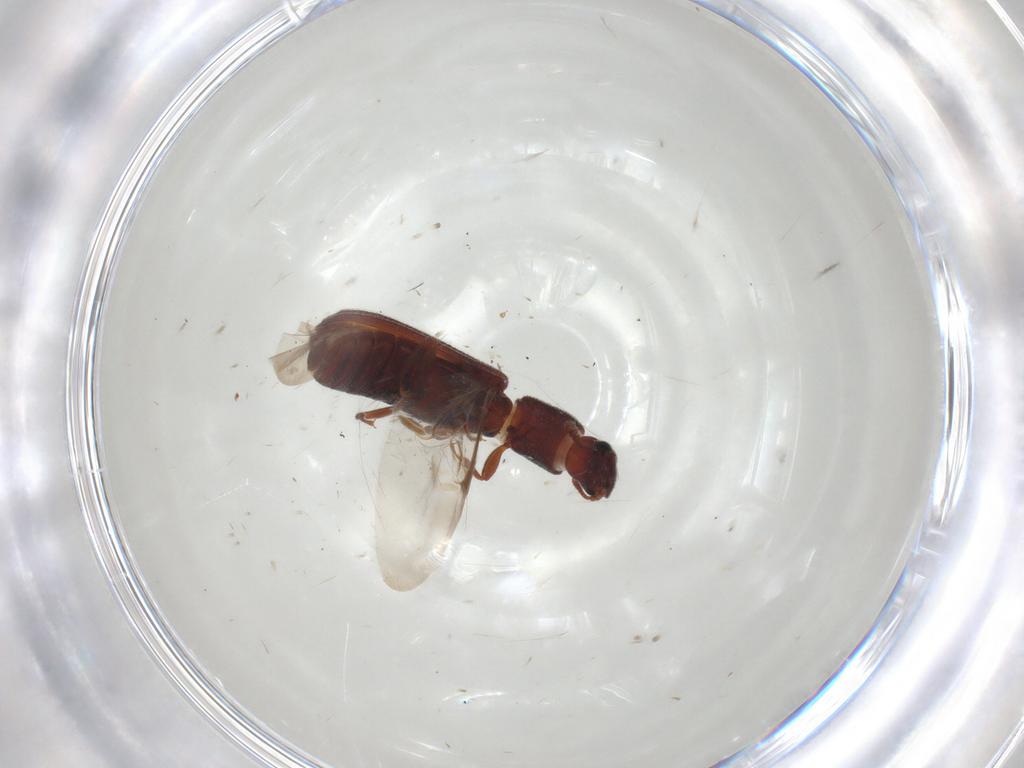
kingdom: Animalia
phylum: Arthropoda
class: Insecta
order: Coleoptera
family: Zopheridae
